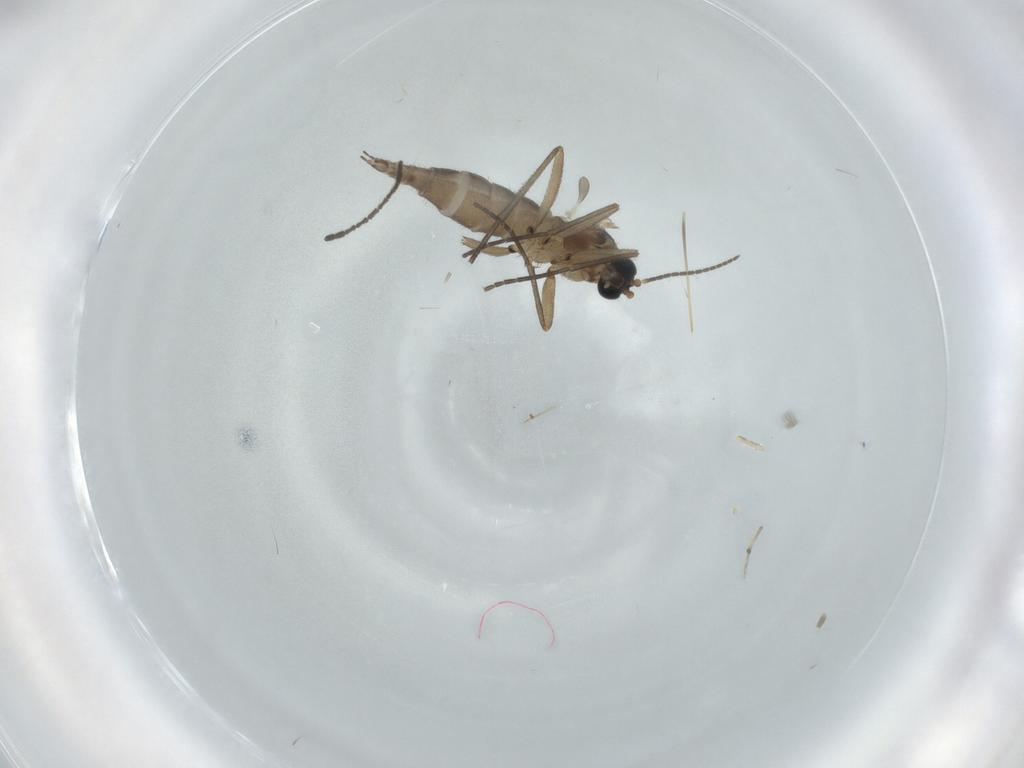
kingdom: Animalia
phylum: Arthropoda
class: Insecta
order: Diptera
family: Sciaridae
